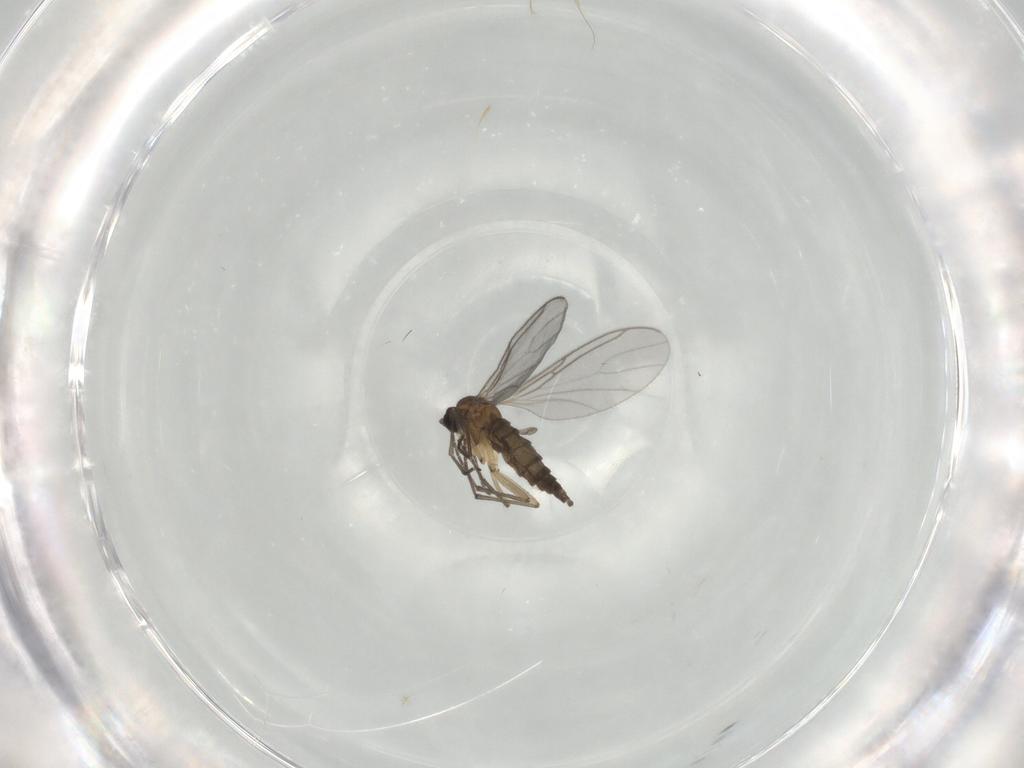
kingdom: Animalia
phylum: Arthropoda
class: Insecta
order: Diptera
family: Sciaridae
